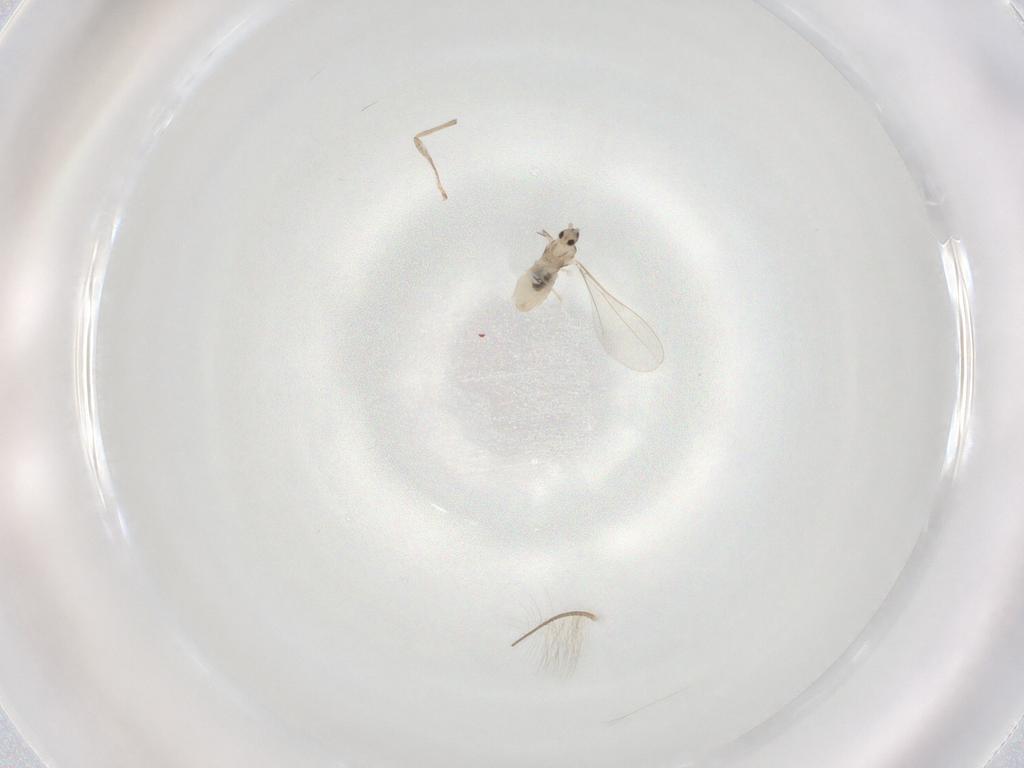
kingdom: Animalia
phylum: Arthropoda
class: Insecta
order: Diptera
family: Cecidomyiidae
